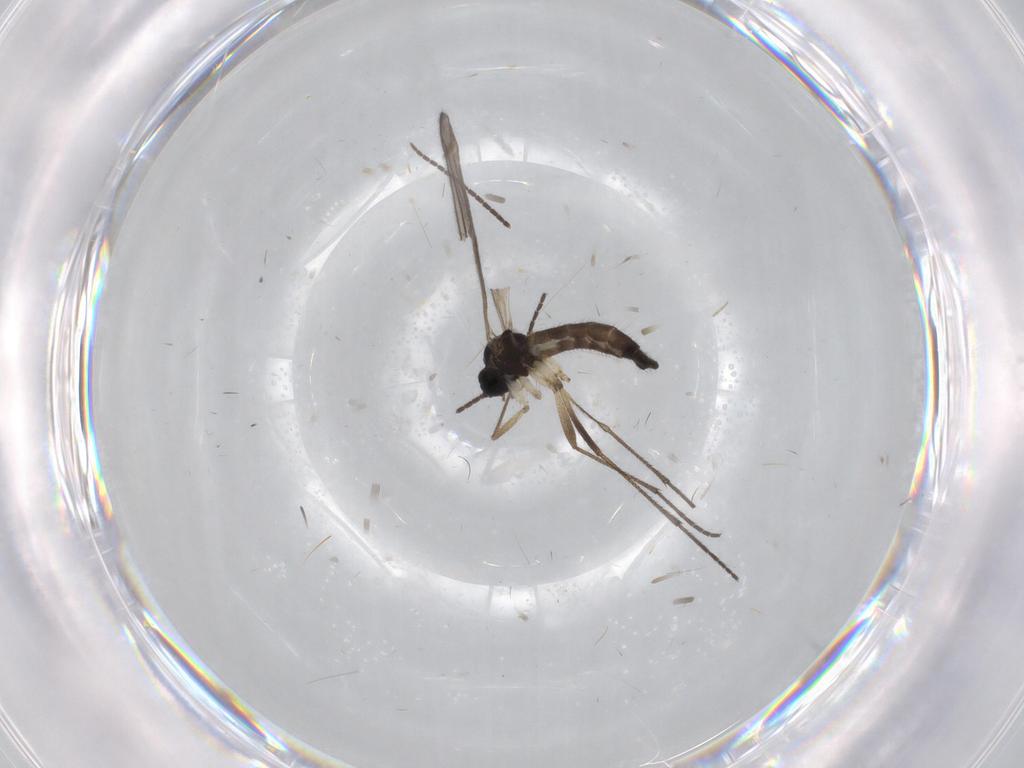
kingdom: Animalia
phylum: Arthropoda
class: Insecta
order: Diptera
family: Sciaridae
